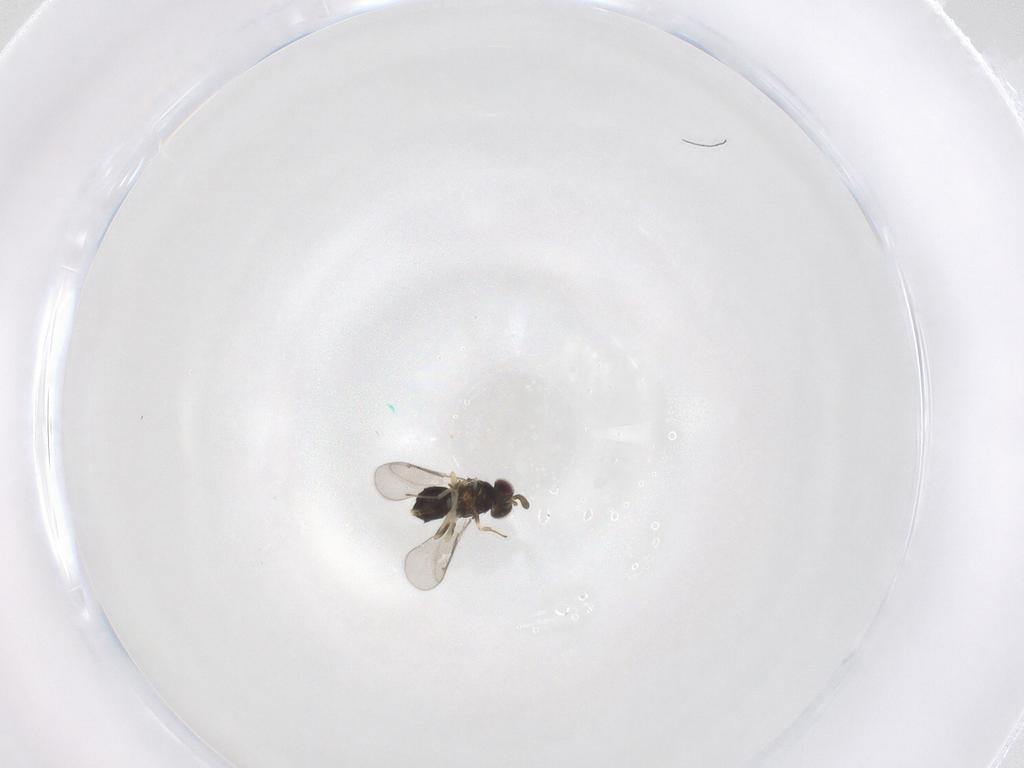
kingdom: Animalia
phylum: Arthropoda
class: Insecta
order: Hymenoptera
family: Aphelinidae
